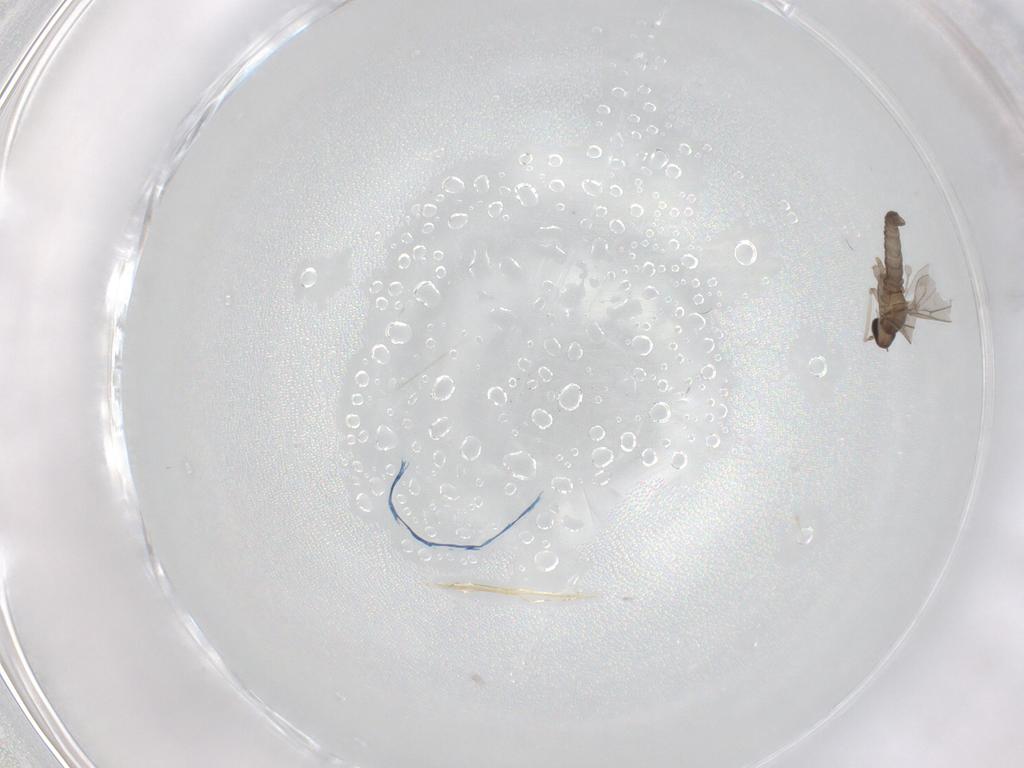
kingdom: Animalia
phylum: Arthropoda
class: Insecta
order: Diptera
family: Cecidomyiidae
